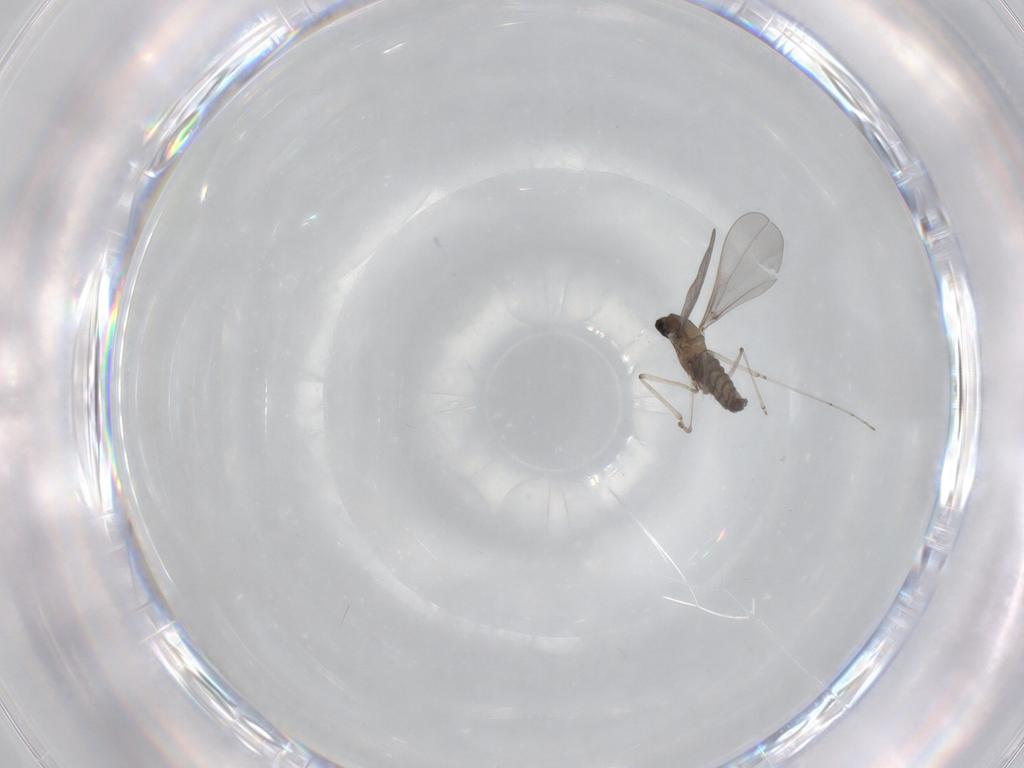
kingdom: Animalia
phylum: Arthropoda
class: Insecta
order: Diptera
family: Cecidomyiidae
